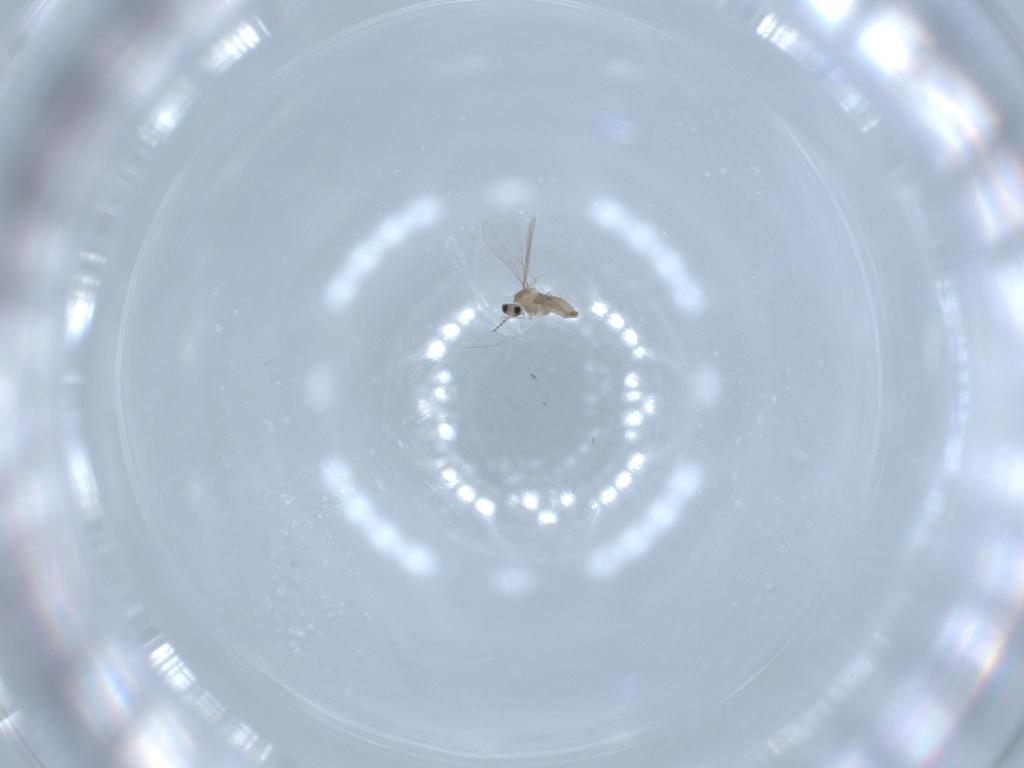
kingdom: Animalia
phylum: Arthropoda
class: Insecta
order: Diptera
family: Cecidomyiidae
